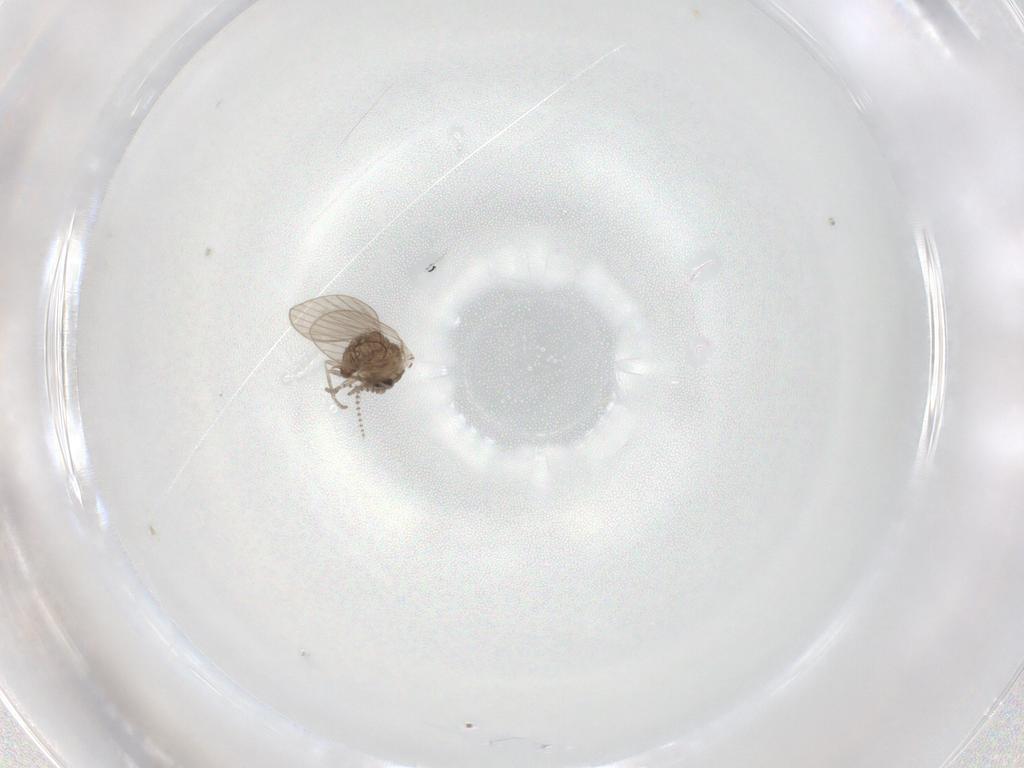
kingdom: Animalia
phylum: Arthropoda
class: Insecta
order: Diptera
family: Psychodidae
